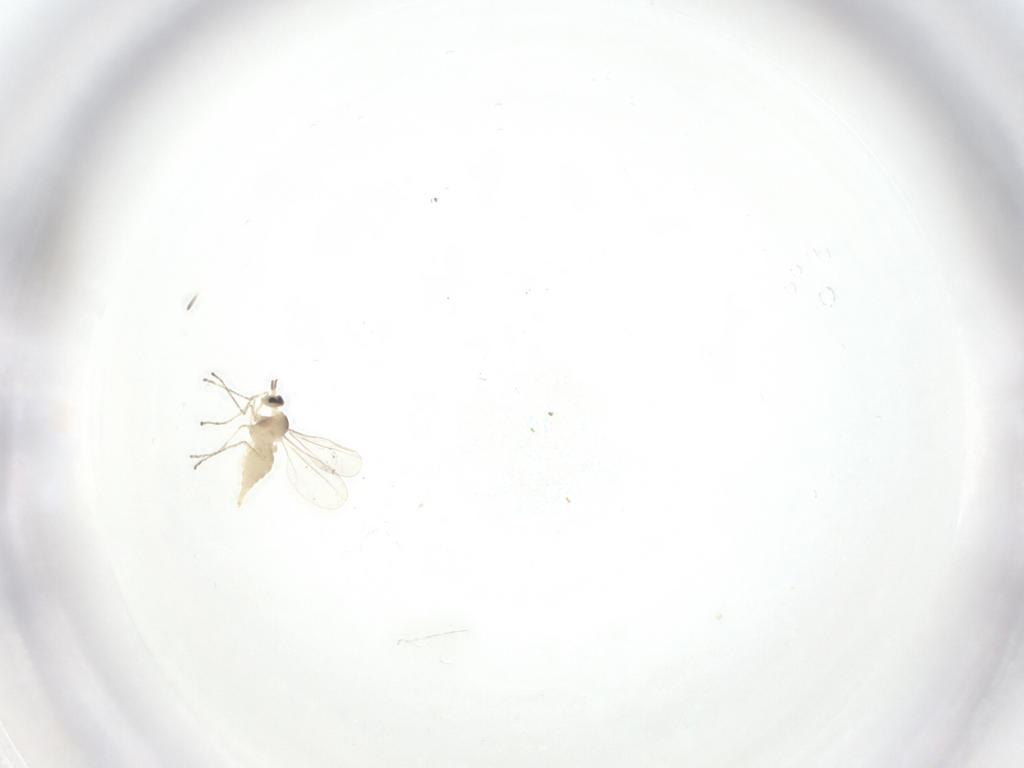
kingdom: Animalia
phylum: Arthropoda
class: Insecta
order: Diptera
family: Cecidomyiidae
